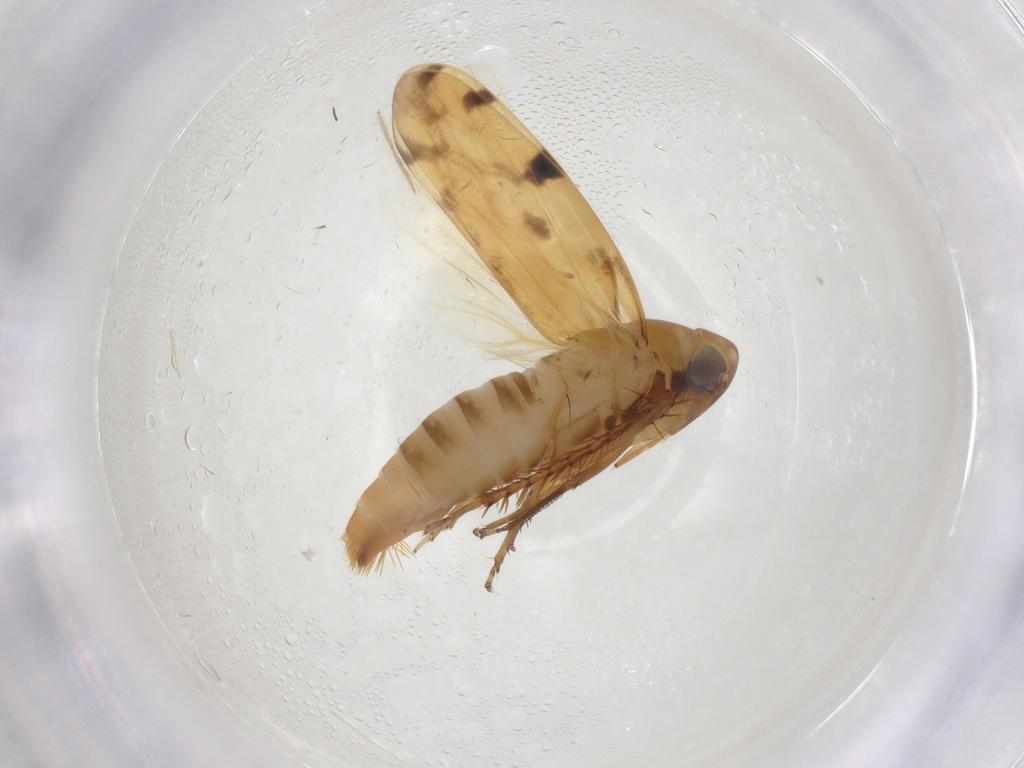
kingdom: Animalia
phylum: Arthropoda
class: Insecta
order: Hemiptera
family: Cicadellidae
